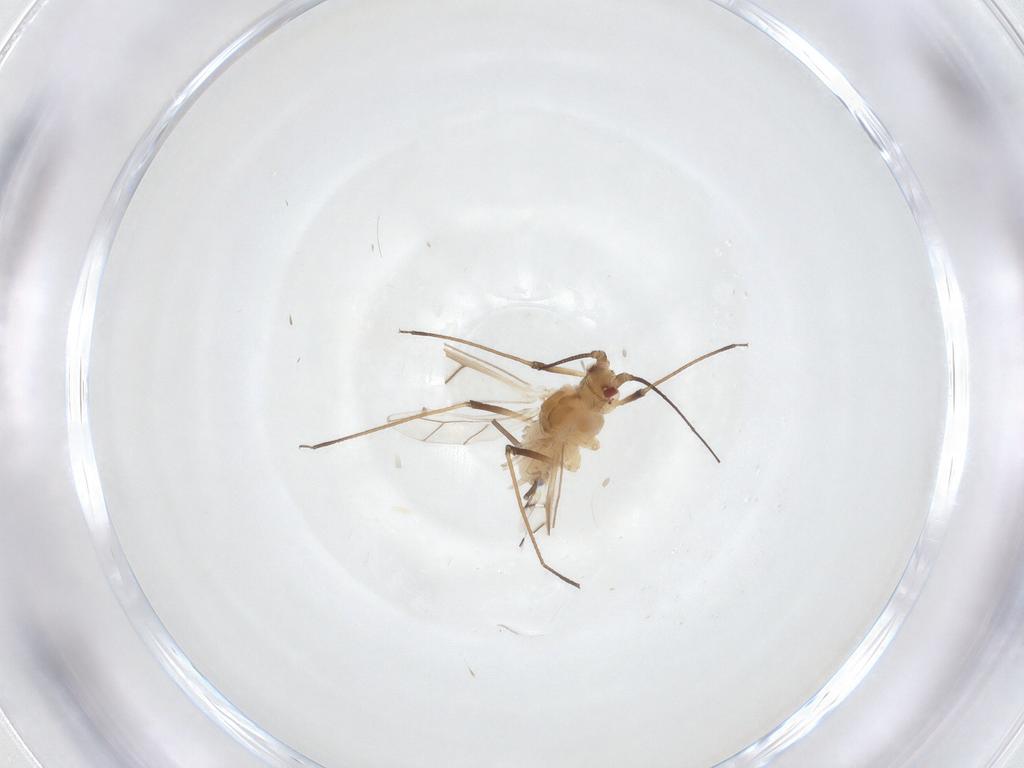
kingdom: Animalia
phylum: Arthropoda
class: Insecta
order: Hemiptera
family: Aphididae
